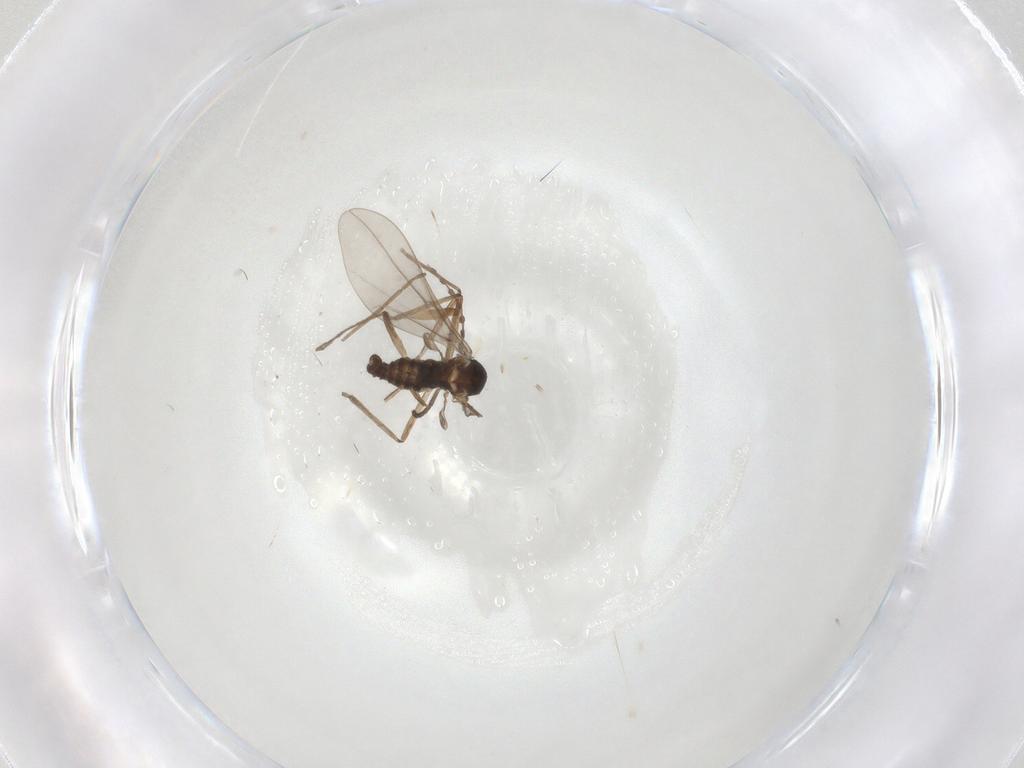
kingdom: Animalia
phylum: Arthropoda
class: Insecta
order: Diptera
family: Cecidomyiidae
